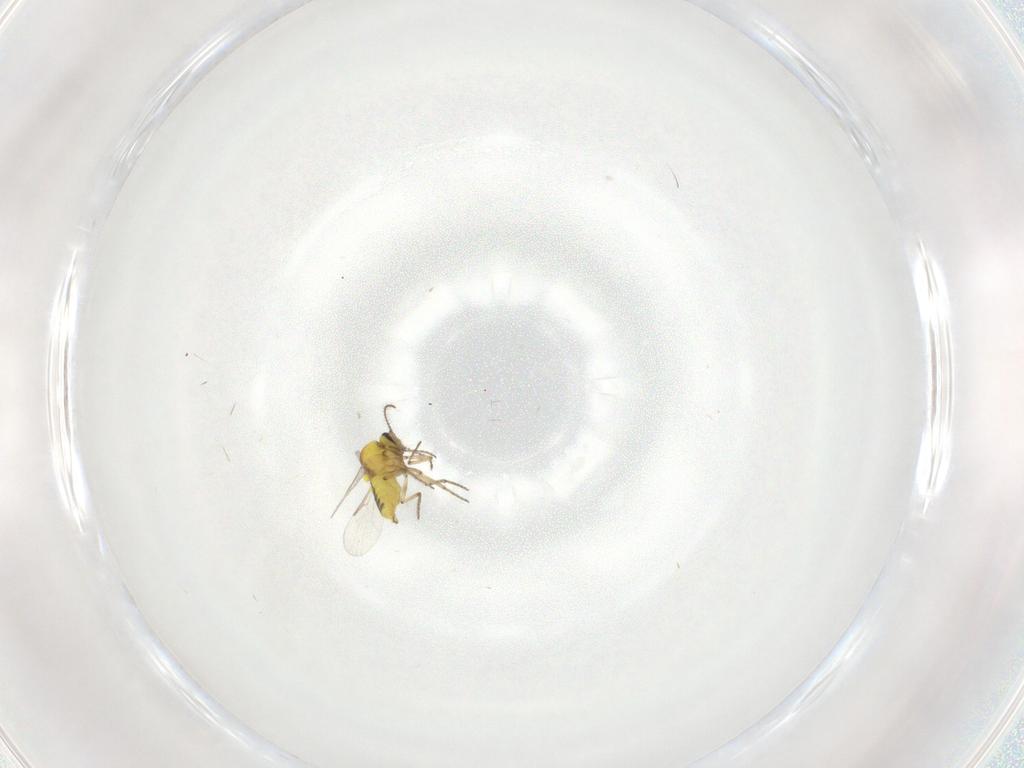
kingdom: Animalia
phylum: Arthropoda
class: Insecta
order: Diptera
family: Ceratopogonidae
